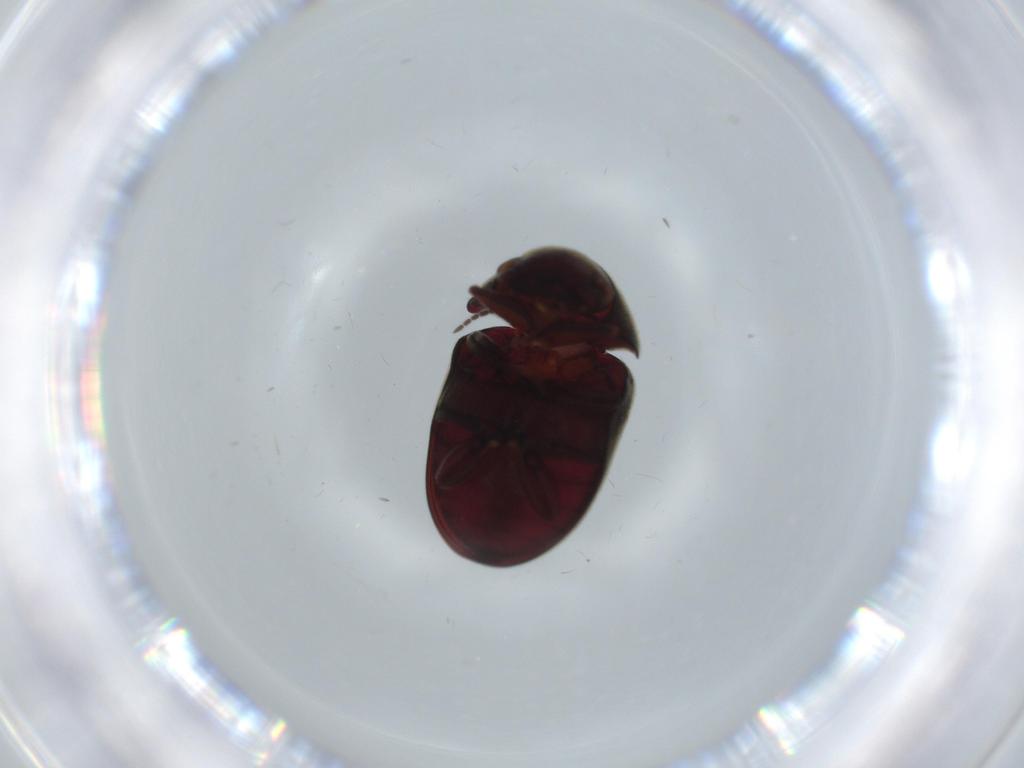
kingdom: Animalia
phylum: Arthropoda
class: Insecta
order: Coleoptera
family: Ptinidae
